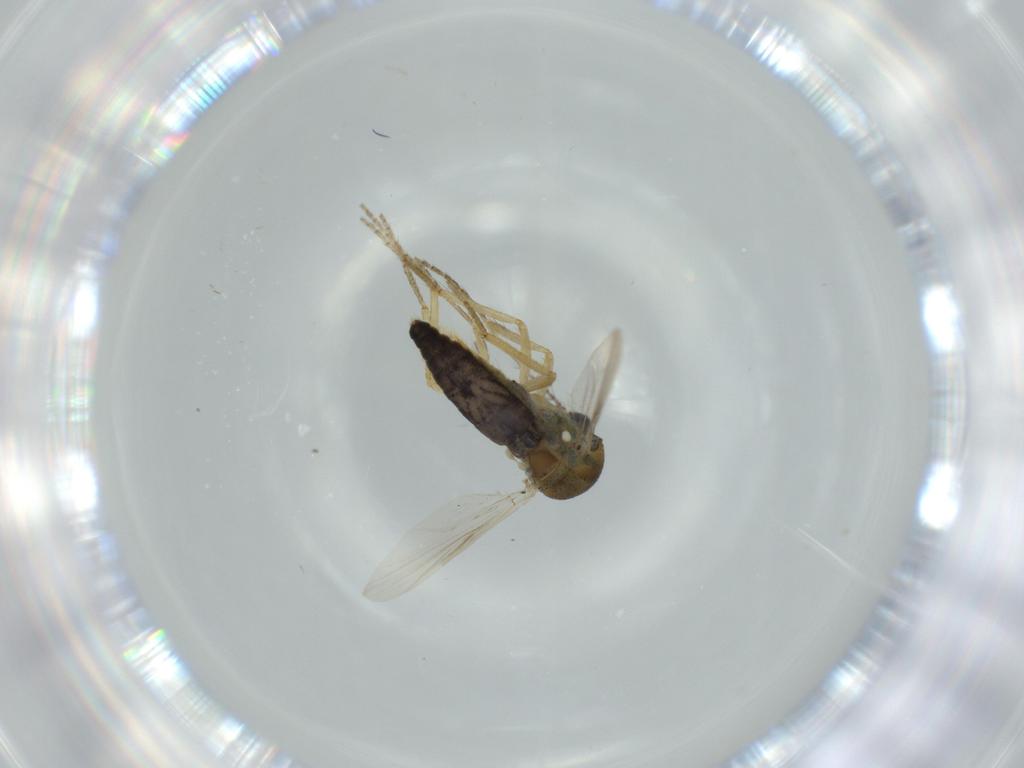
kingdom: Animalia
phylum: Arthropoda
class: Insecta
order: Diptera
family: Ceratopogonidae
